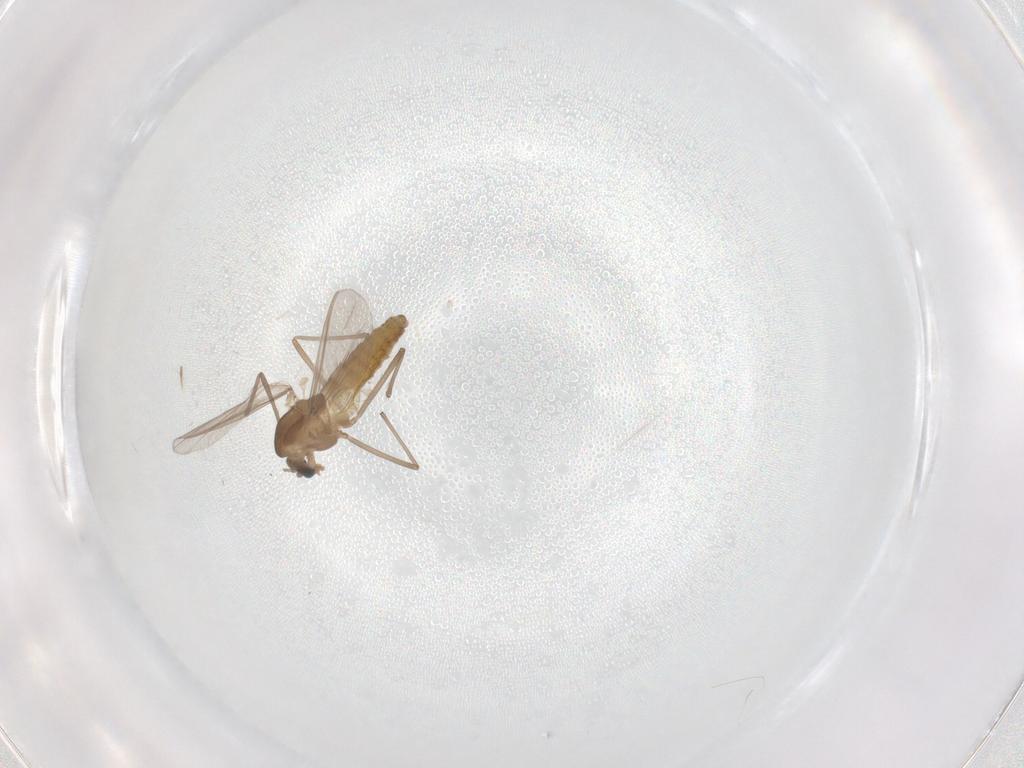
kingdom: Animalia
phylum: Arthropoda
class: Insecta
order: Diptera
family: Chironomidae
